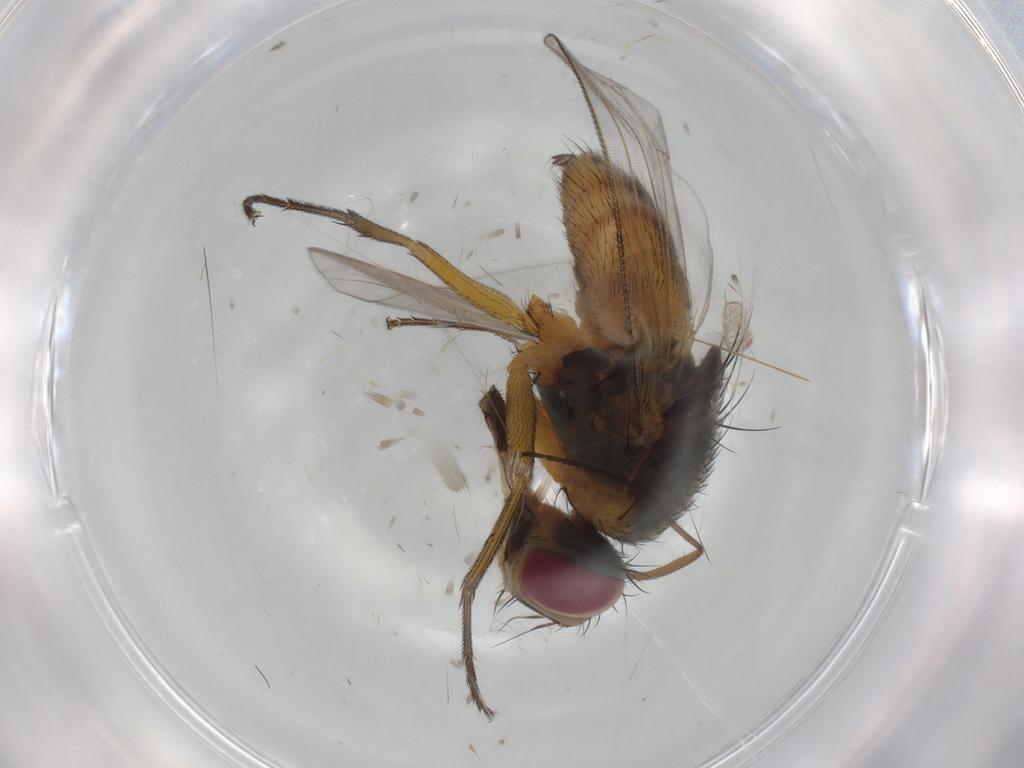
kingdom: Animalia
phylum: Arthropoda
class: Insecta
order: Diptera
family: Muscidae
